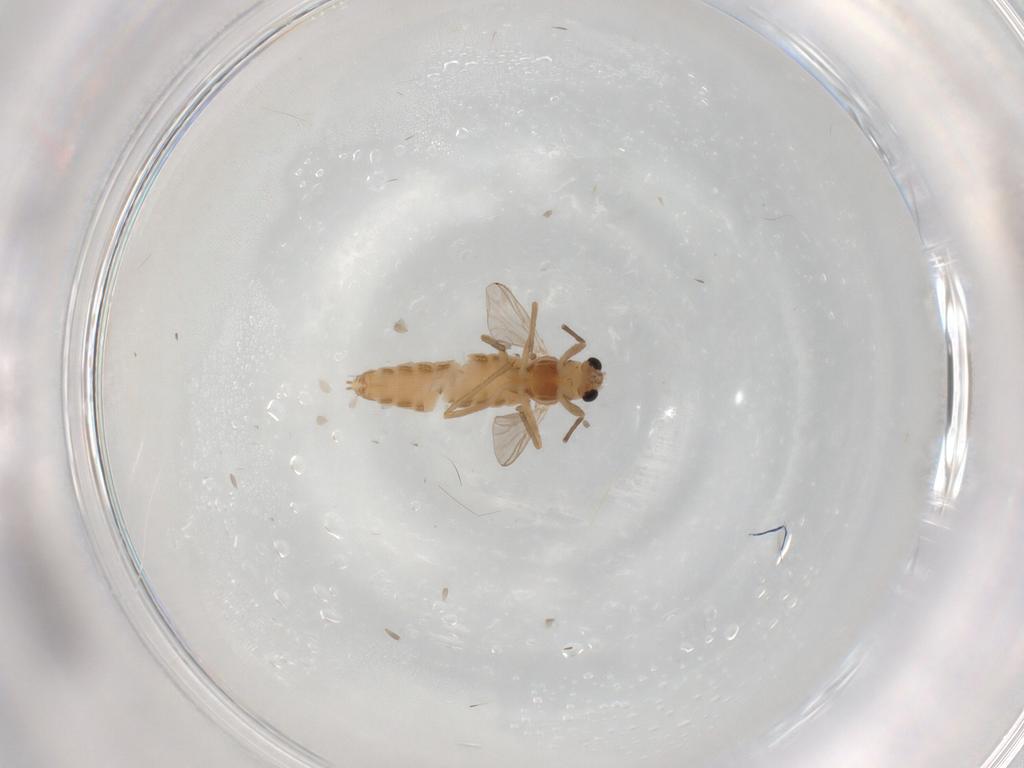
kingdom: Animalia
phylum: Arthropoda
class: Insecta
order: Diptera
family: Chironomidae
